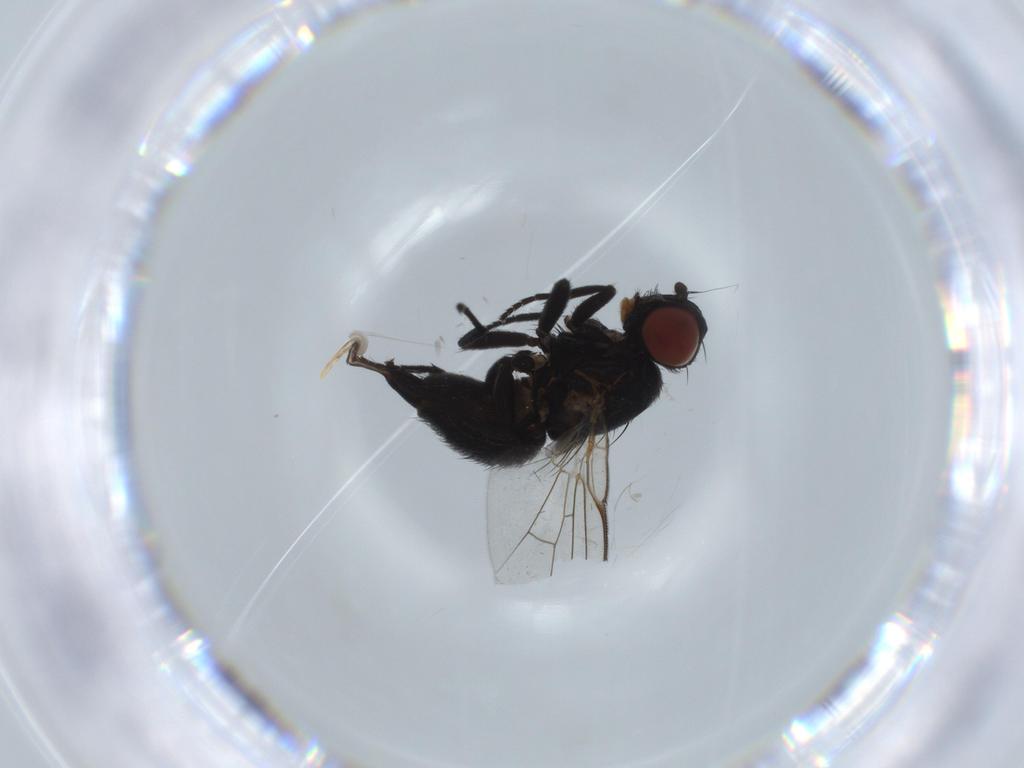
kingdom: Animalia
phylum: Arthropoda
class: Insecta
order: Diptera
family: Agromyzidae
